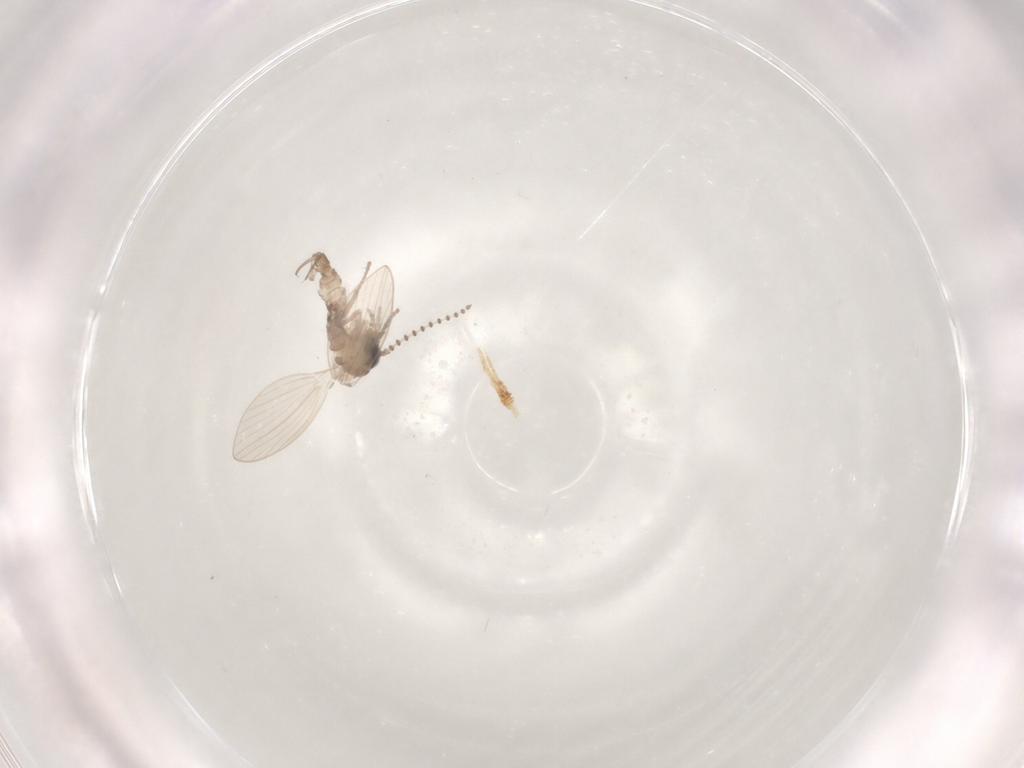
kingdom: Animalia
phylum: Arthropoda
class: Insecta
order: Diptera
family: Psychodidae
